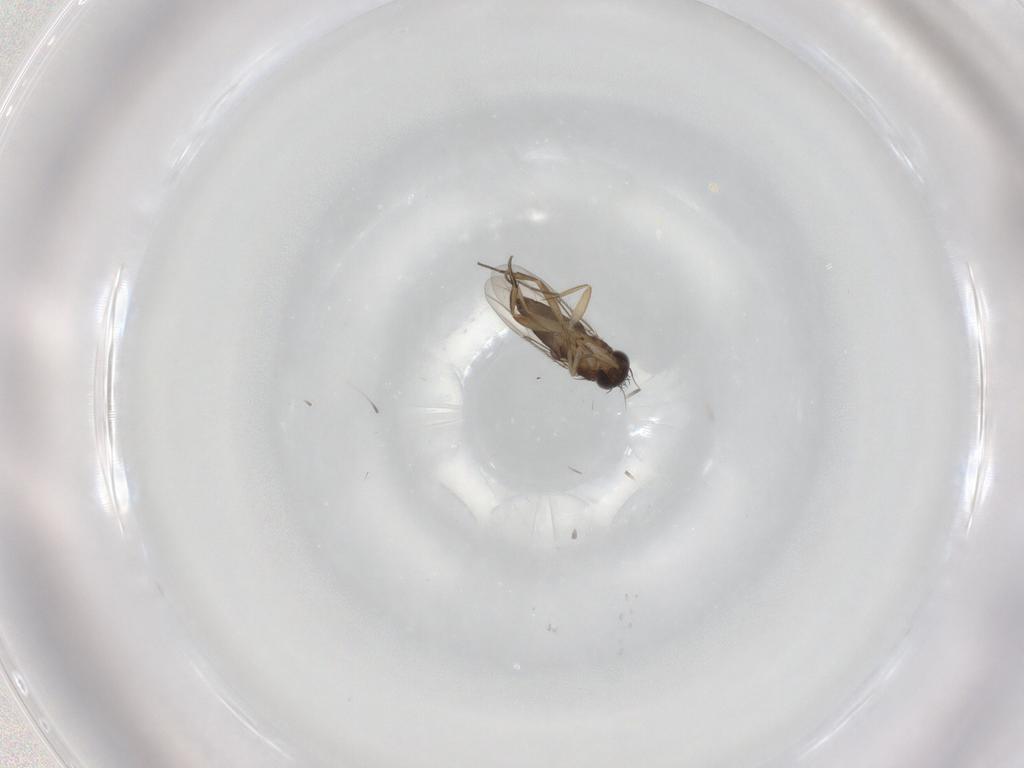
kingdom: Animalia
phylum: Arthropoda
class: Insecta
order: Diptera
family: Phoridae
